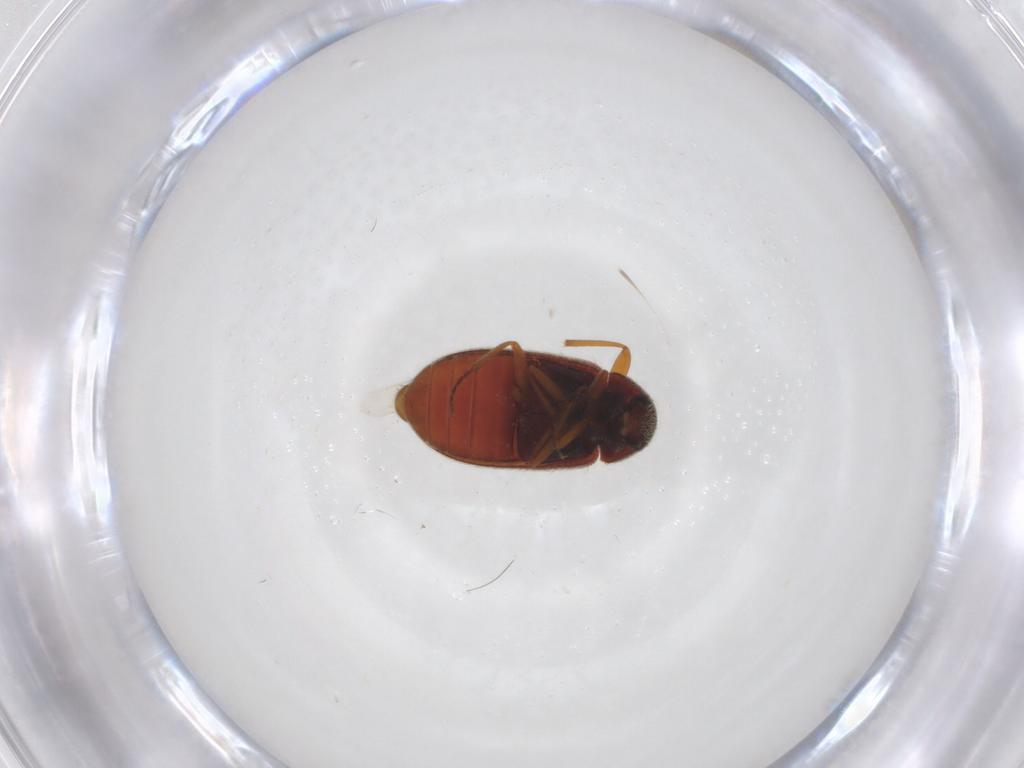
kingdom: Animalia
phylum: Arthropoda
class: Insecta
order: Coleoptera
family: Rhadalidae
